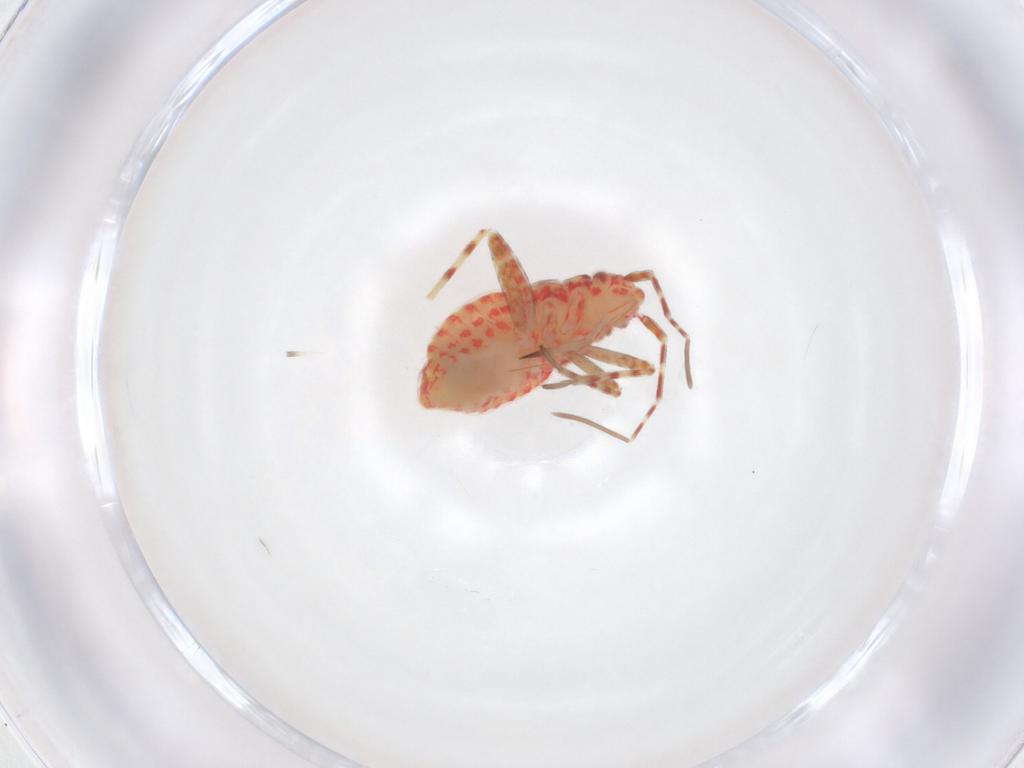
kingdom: Animalia
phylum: Arthropoda
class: Insecta
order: Hemiptera
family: Miridae
